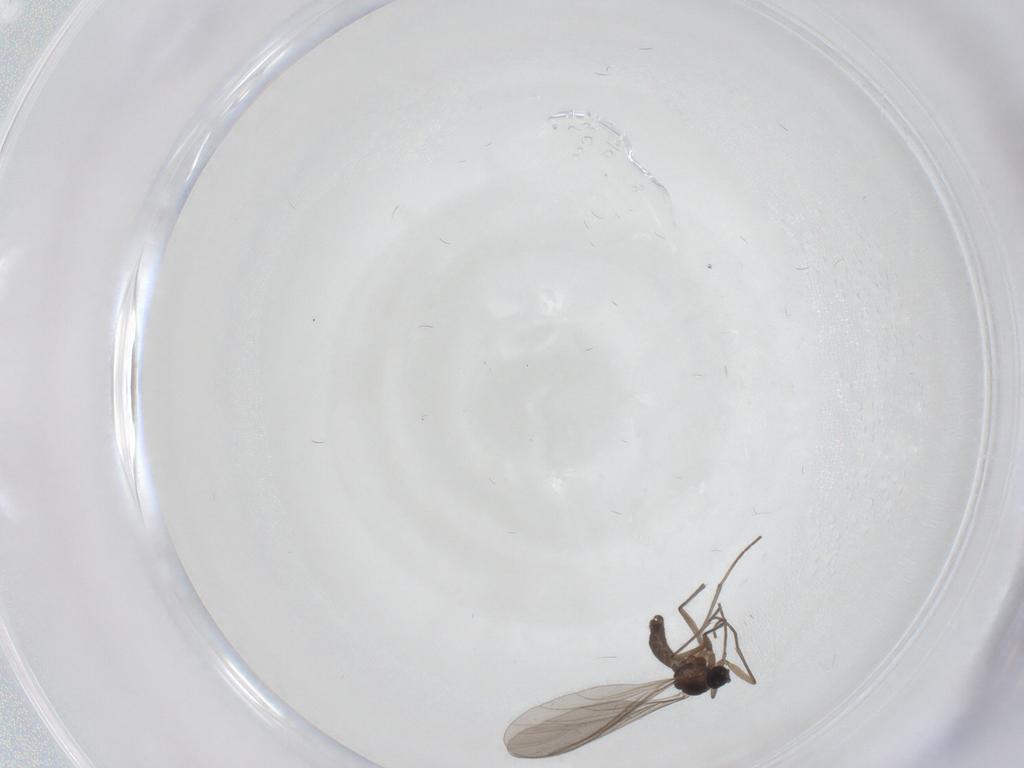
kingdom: Animalia
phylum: Arthropoda
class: Insecta
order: Diptera
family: Sciaridae
